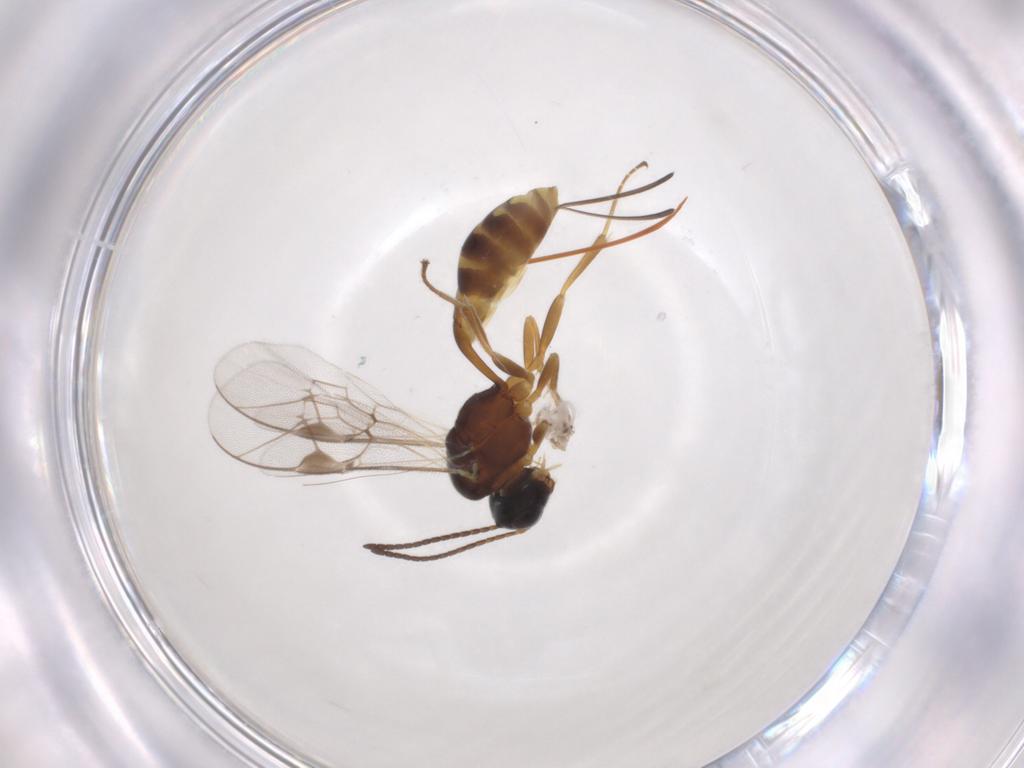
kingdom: Animalia
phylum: Arthropoda
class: Insecta
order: Hymenoptera
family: Ichneumonidae
